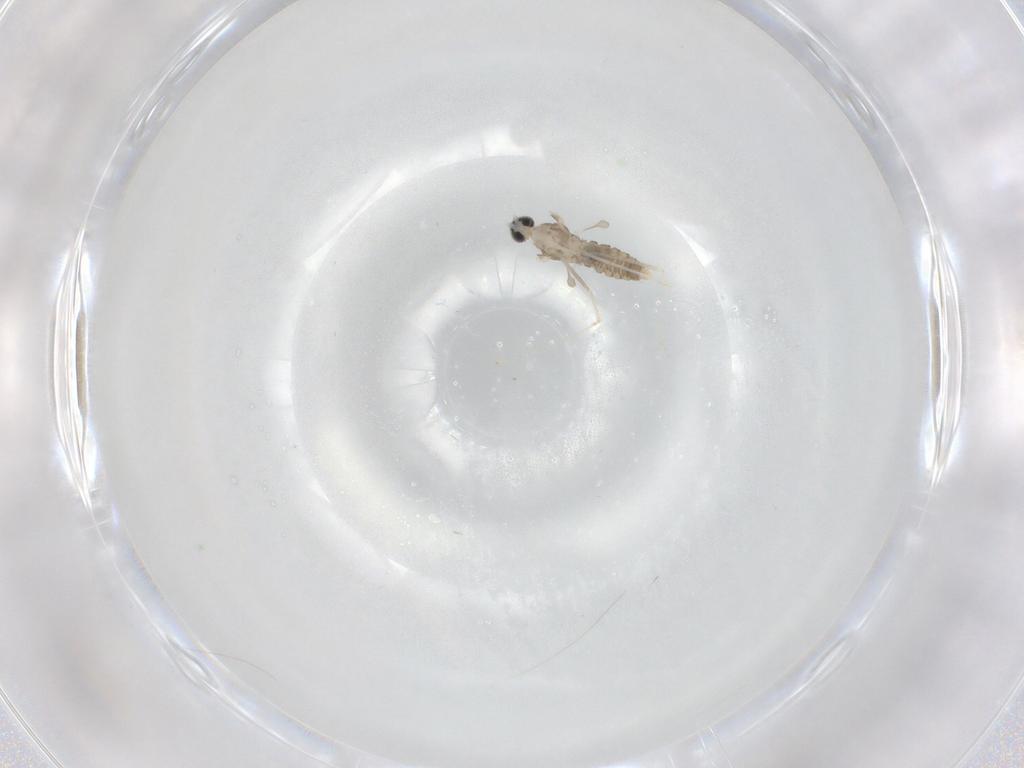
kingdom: Animalia
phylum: Arthropoda
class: Insecta
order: Diptera
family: Cecidomyiidae
